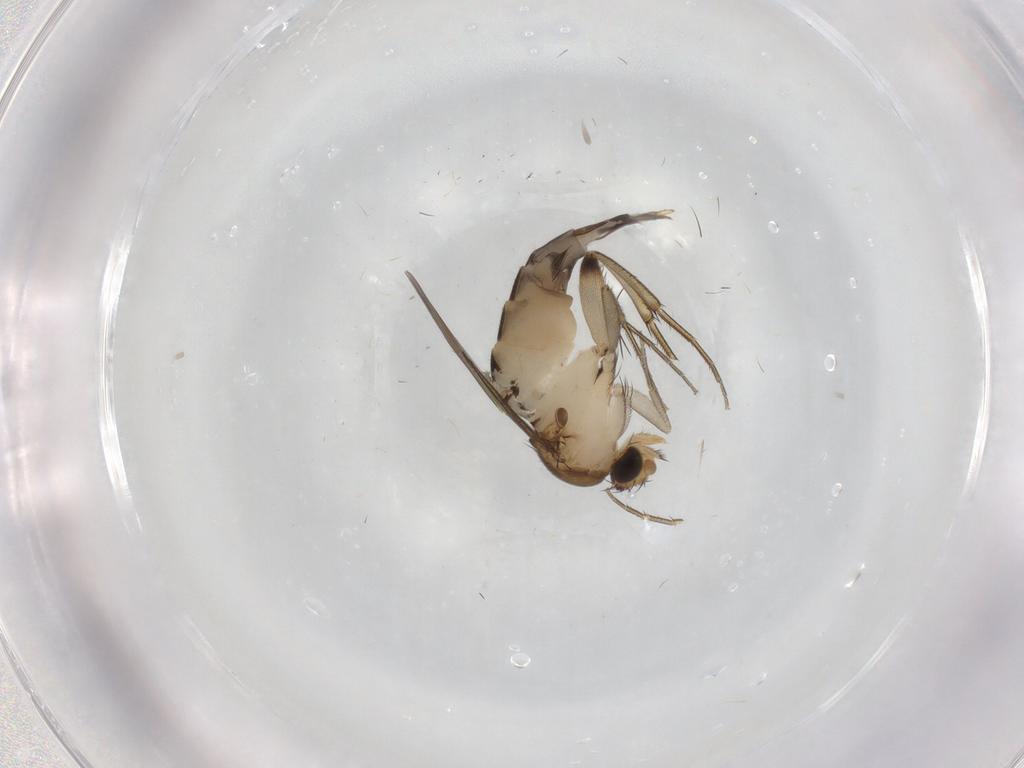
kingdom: Animalia
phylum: Arthropoda
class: Insecta
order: Diptera
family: Phoridae
